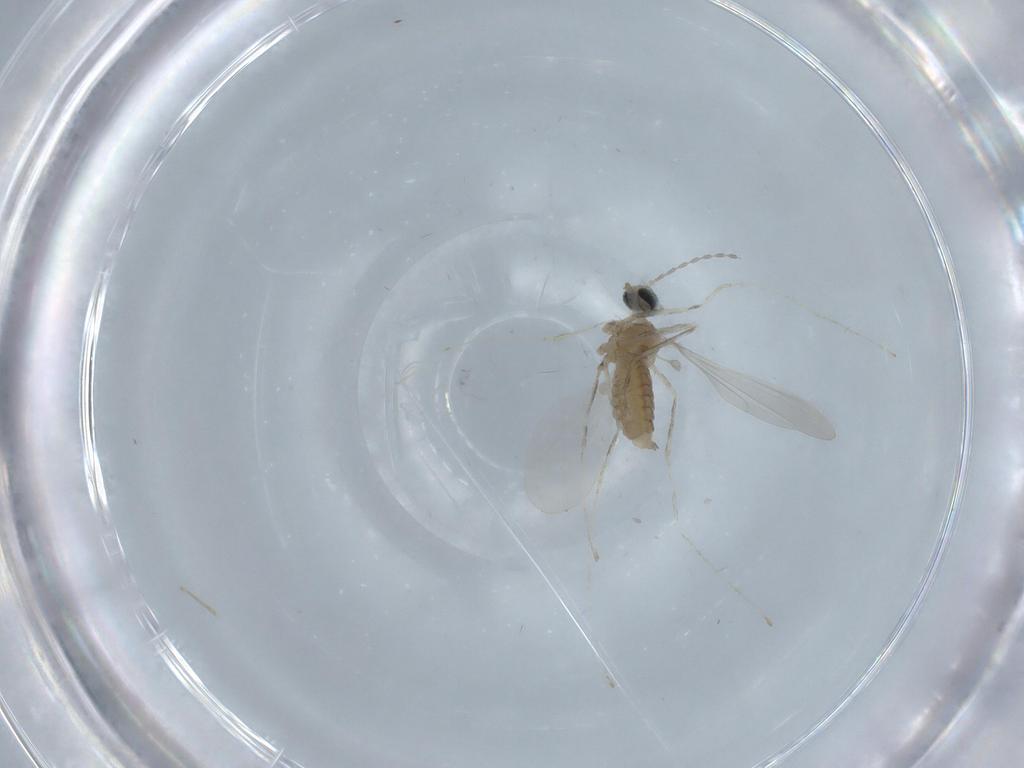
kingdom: Animalia
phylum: Arthropoda
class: Insecta
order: Diptera
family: Cecidomyiidae
